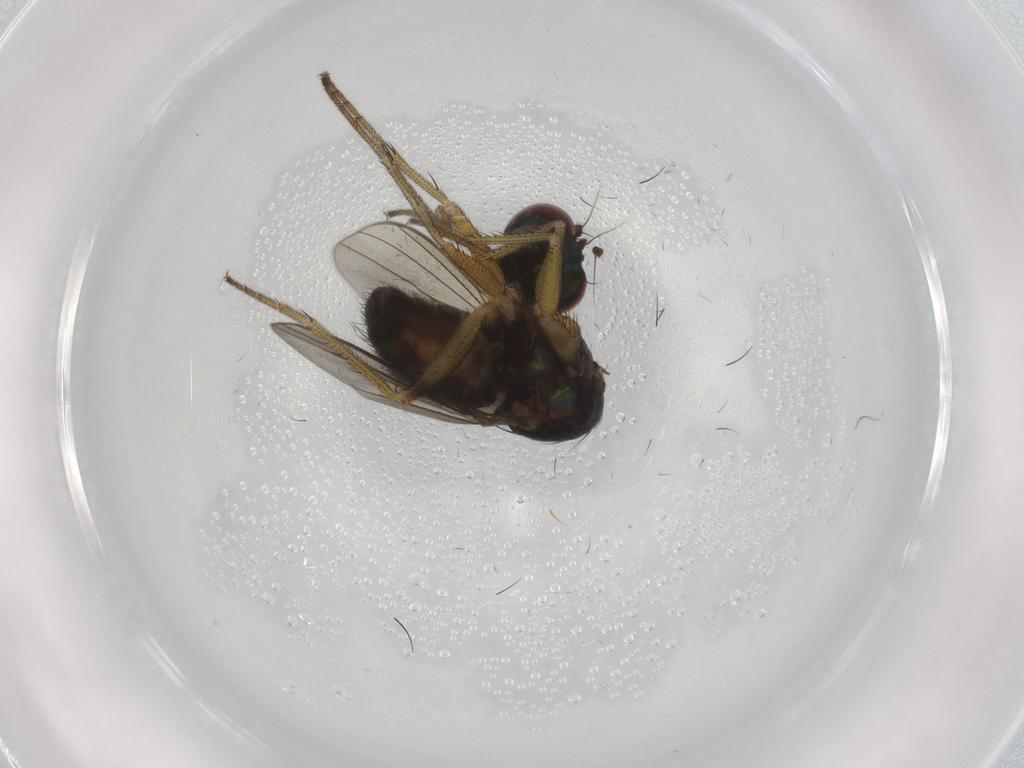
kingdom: Animalia
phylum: Arthropoda
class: Insecta
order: Diptera
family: Dolichopodidae
